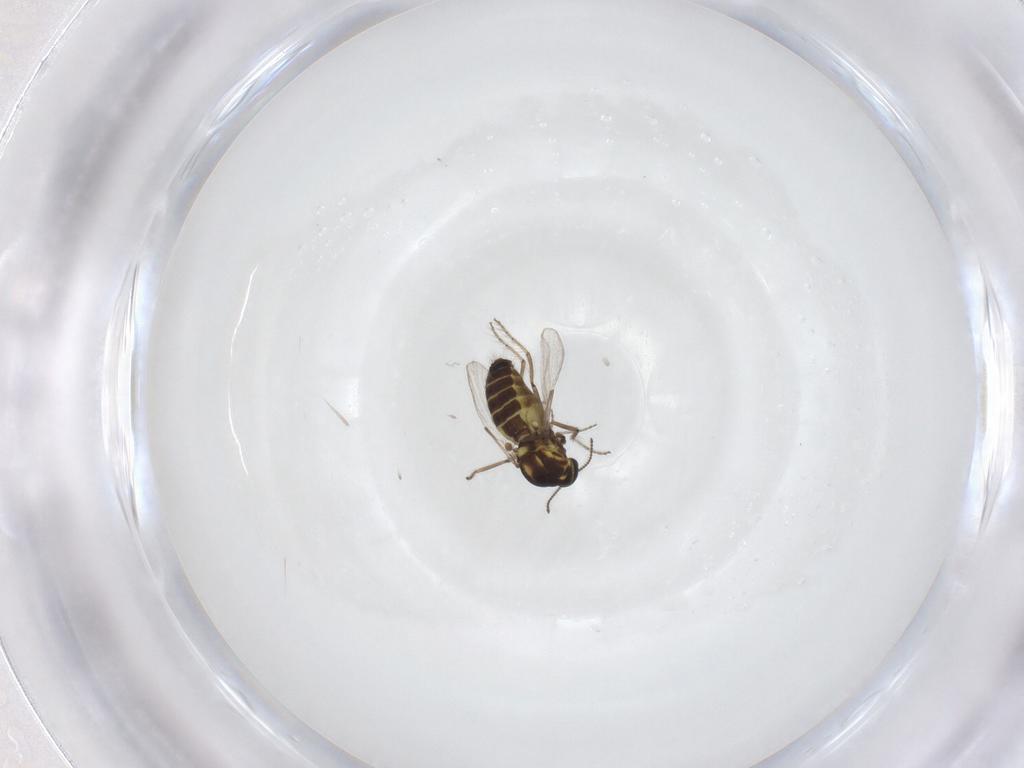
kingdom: Animalia
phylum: Arthropoda
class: Insecta
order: Diptera
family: Ceratopogonidae
